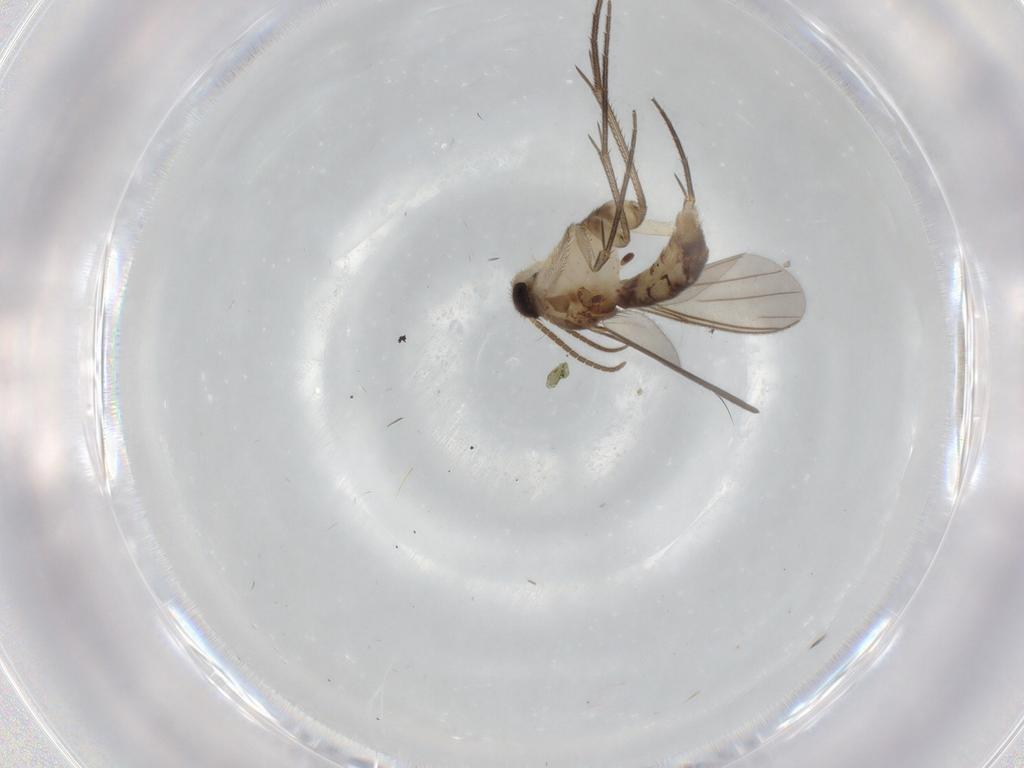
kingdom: Animalia
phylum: Arthropoda
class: Insecta
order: Diptera
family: Mycetophilidae
